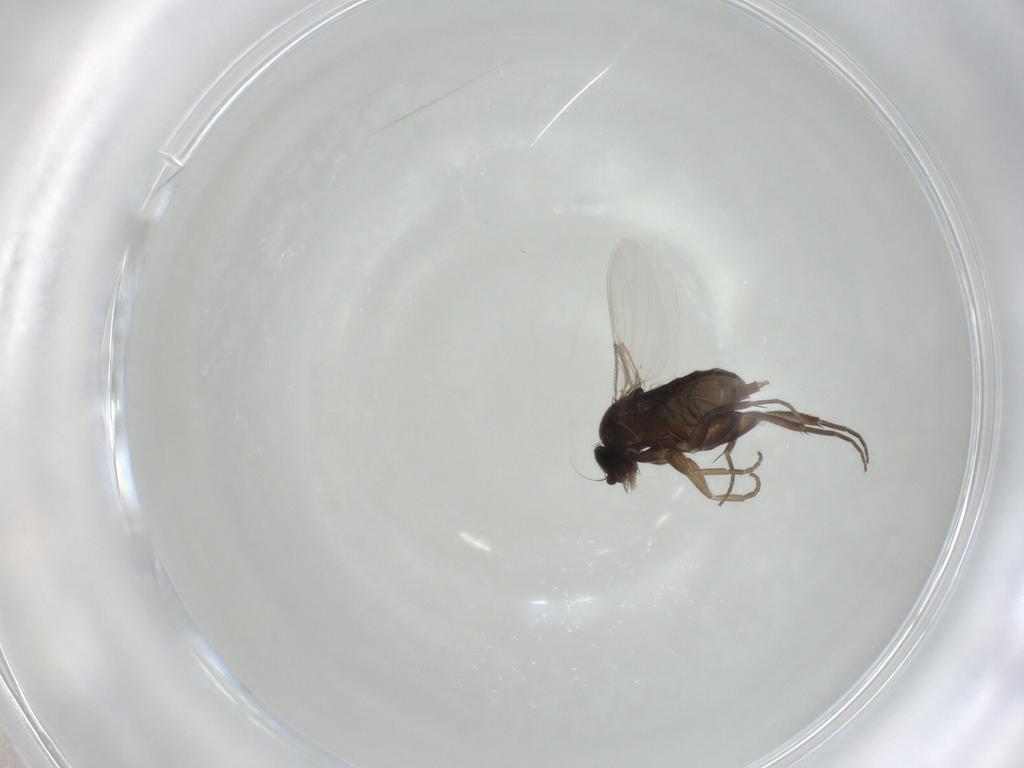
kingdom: Animalia
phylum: Arthropoda
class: Insecta
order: Diptera
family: Phoridae
